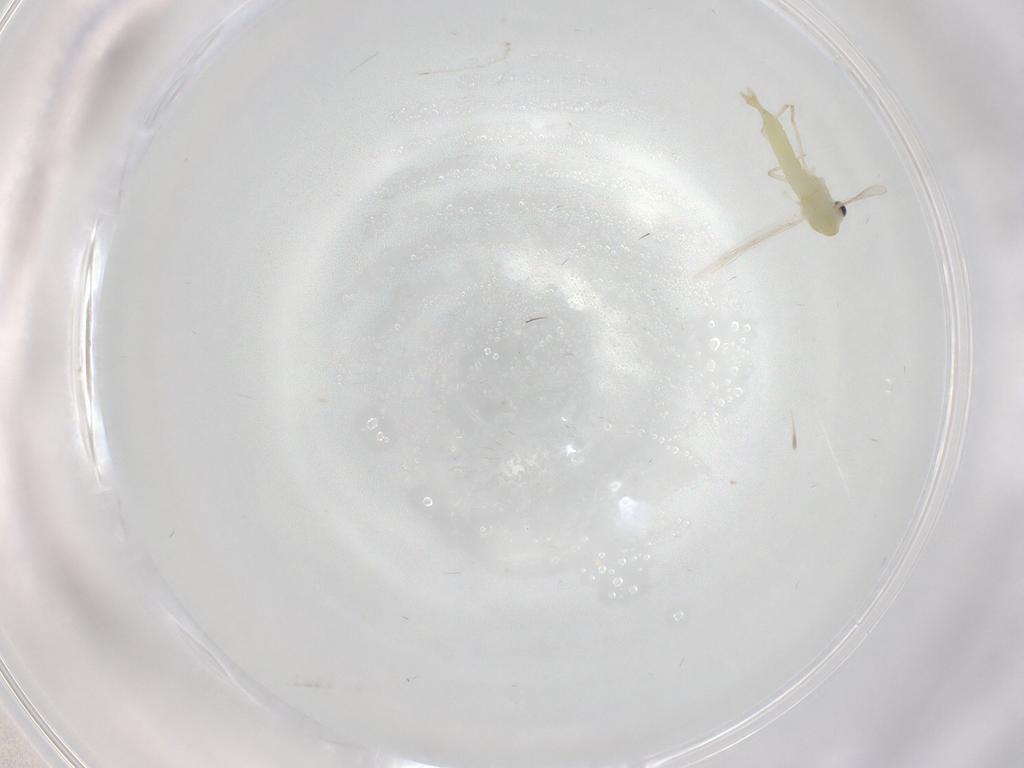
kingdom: Animalia
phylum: Arthropoda
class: Insecta
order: Diptera
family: Chironomidae
